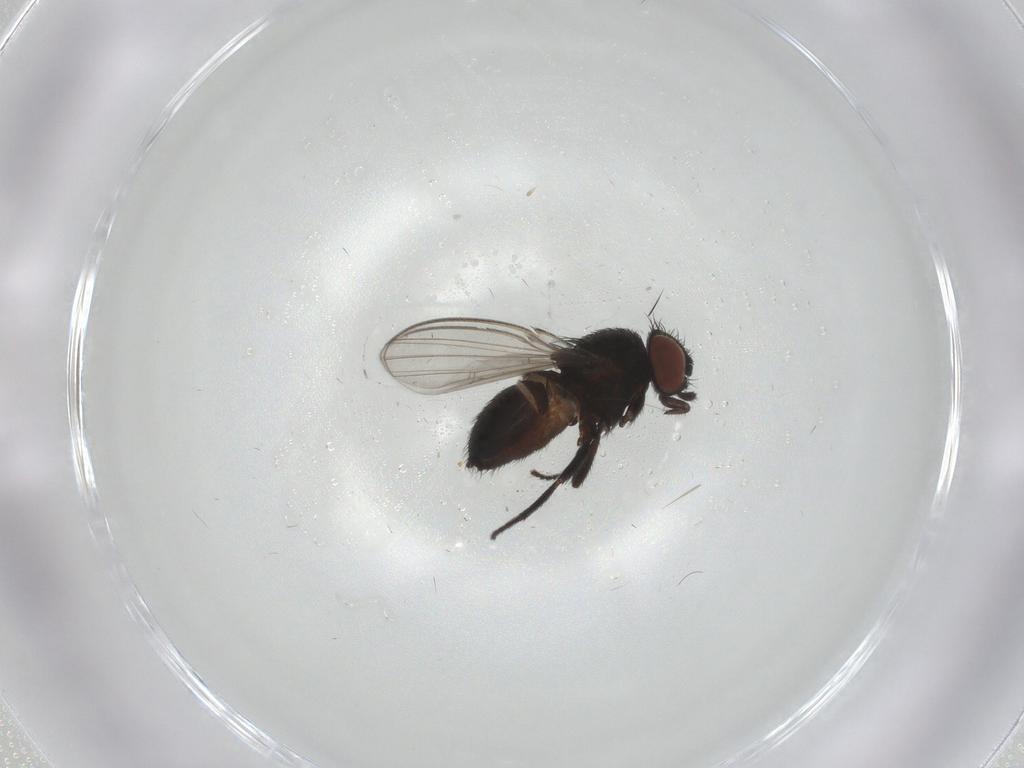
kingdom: Animalia
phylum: Arthropoda
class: Insecta
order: Diptera
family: Milichiidae
